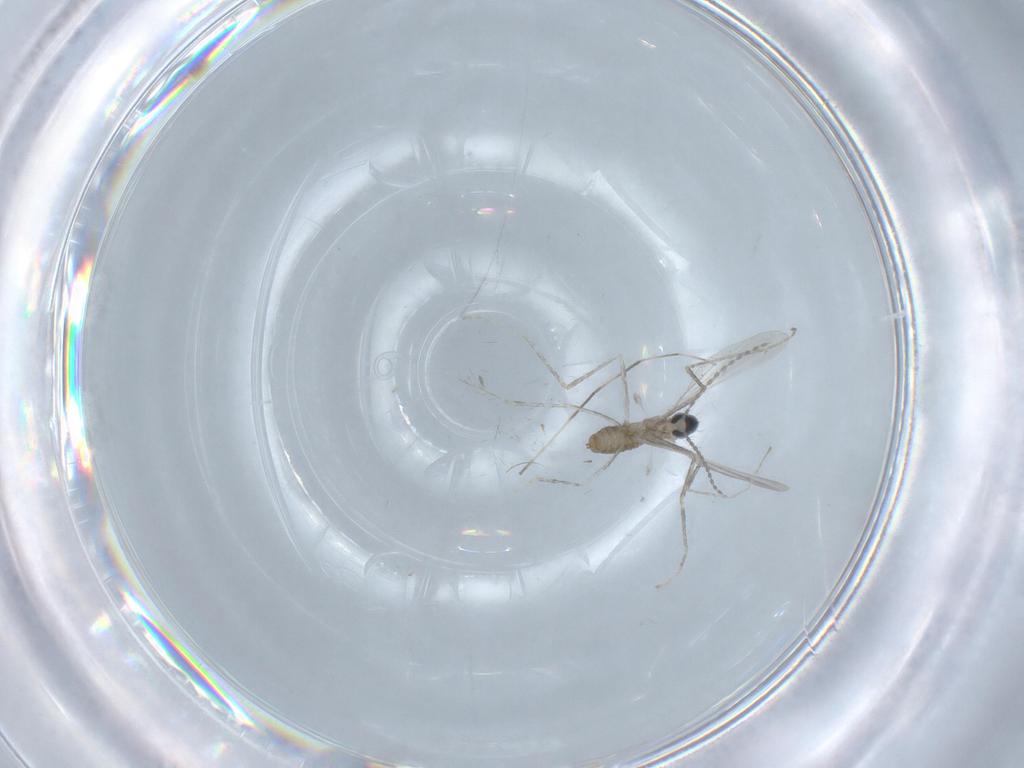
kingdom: Animalia
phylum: Arthropoda
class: Insecta
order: Diptera
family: Cecidomyiidae
